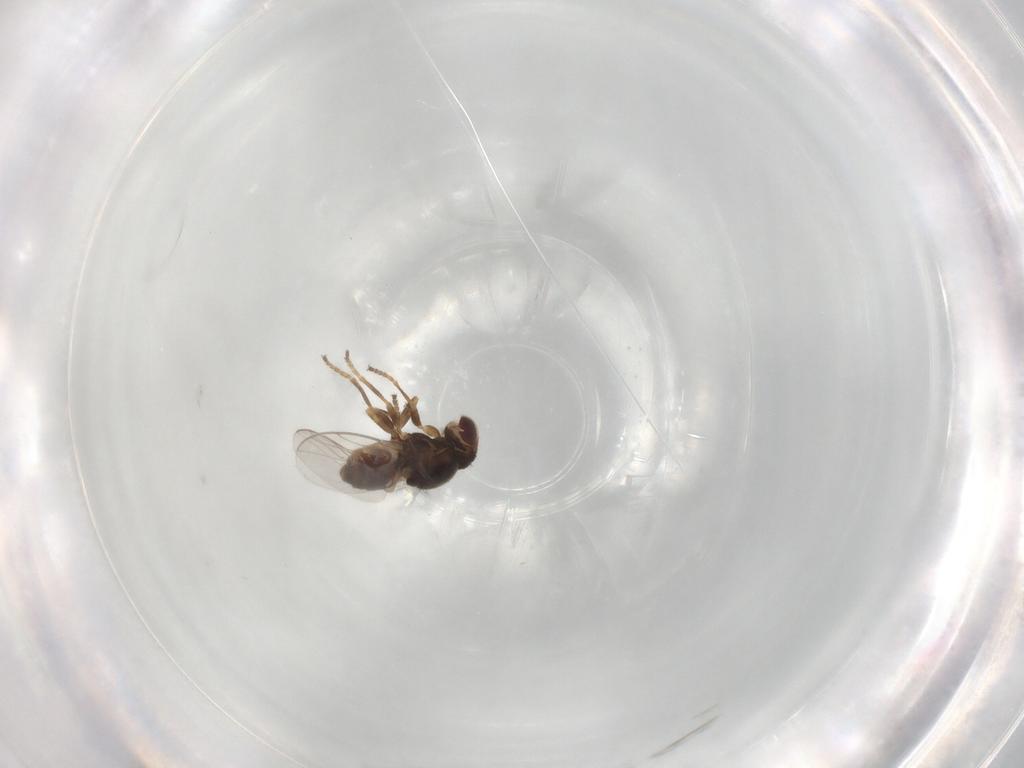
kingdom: Animalia
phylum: Arthropoda
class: Insecta
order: Diptera
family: Cecidomyiidae
